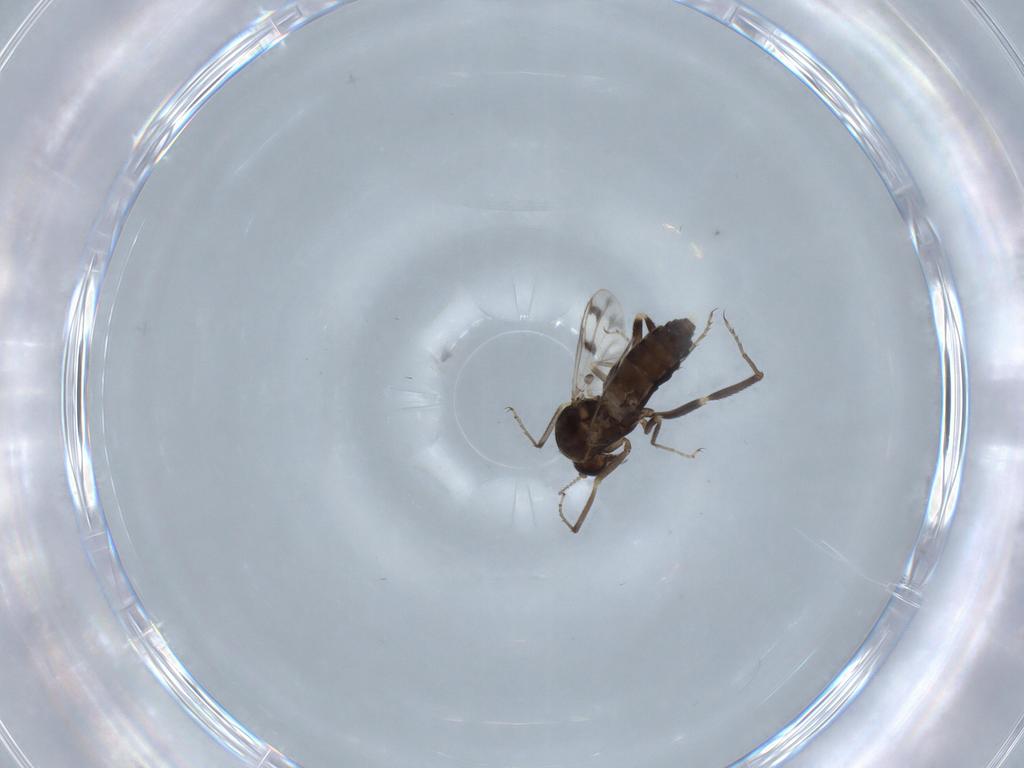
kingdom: Animalia
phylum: Arthropoda
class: Insecta
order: Diptera
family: Ceratopogonidae
